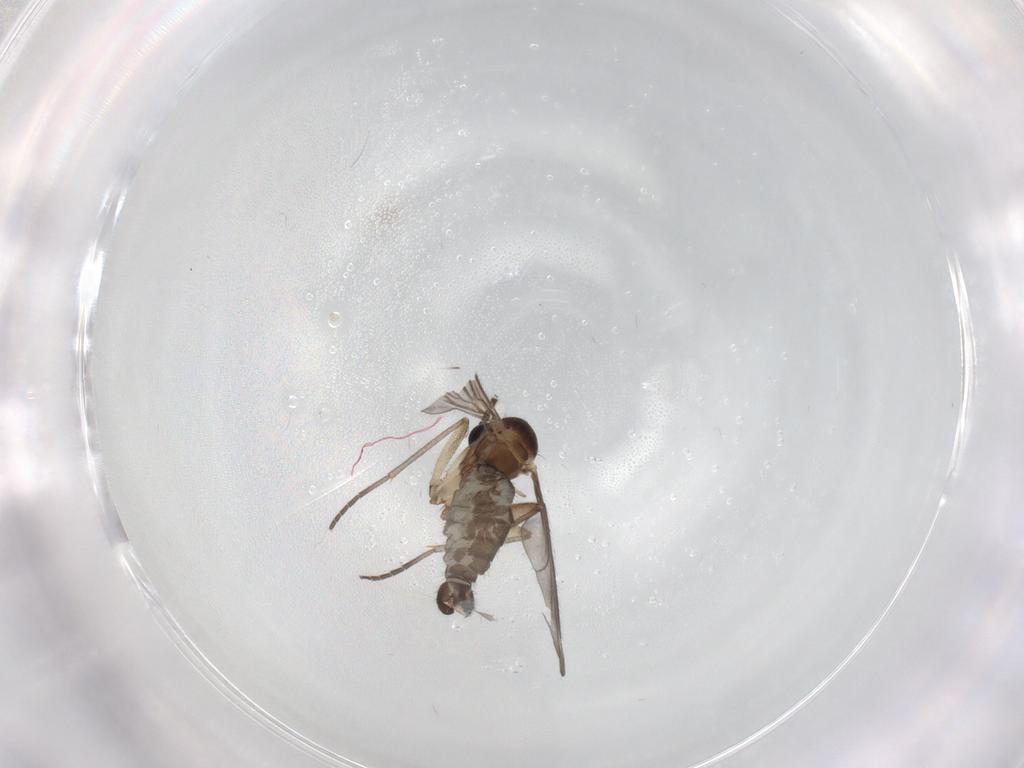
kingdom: Animalia
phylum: Arthropoda
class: Insecta
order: Diptera
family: Sciaridae
